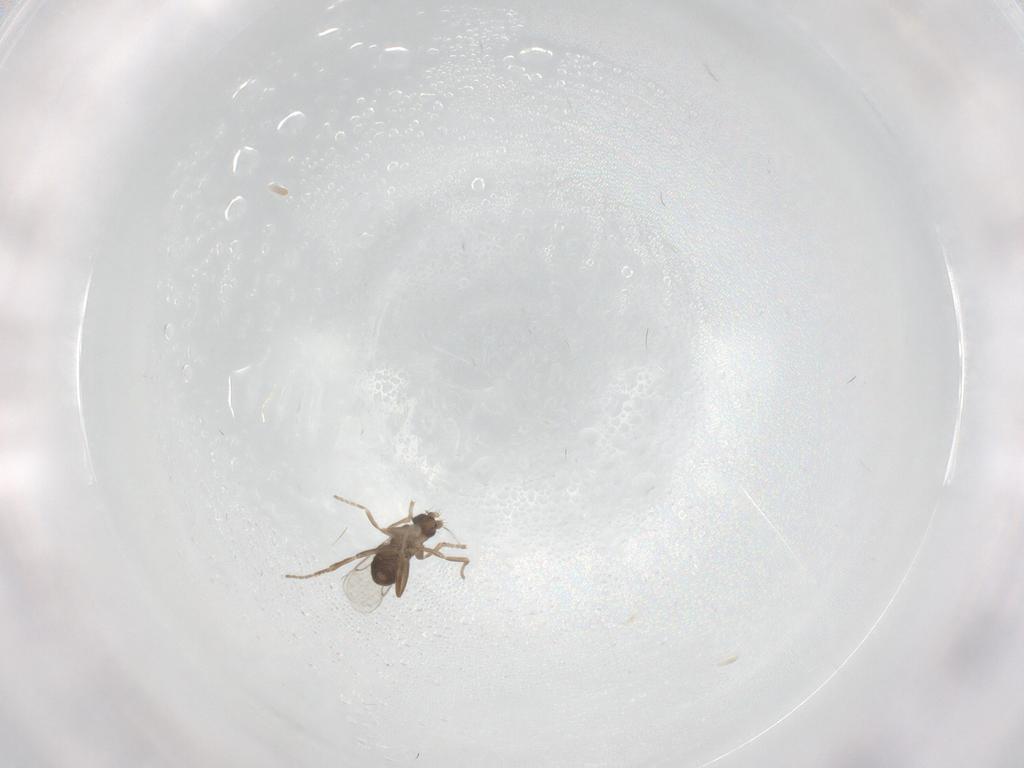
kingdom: Animalia
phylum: Arthropoda
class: Insecta
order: Diptera
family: Phoridae
